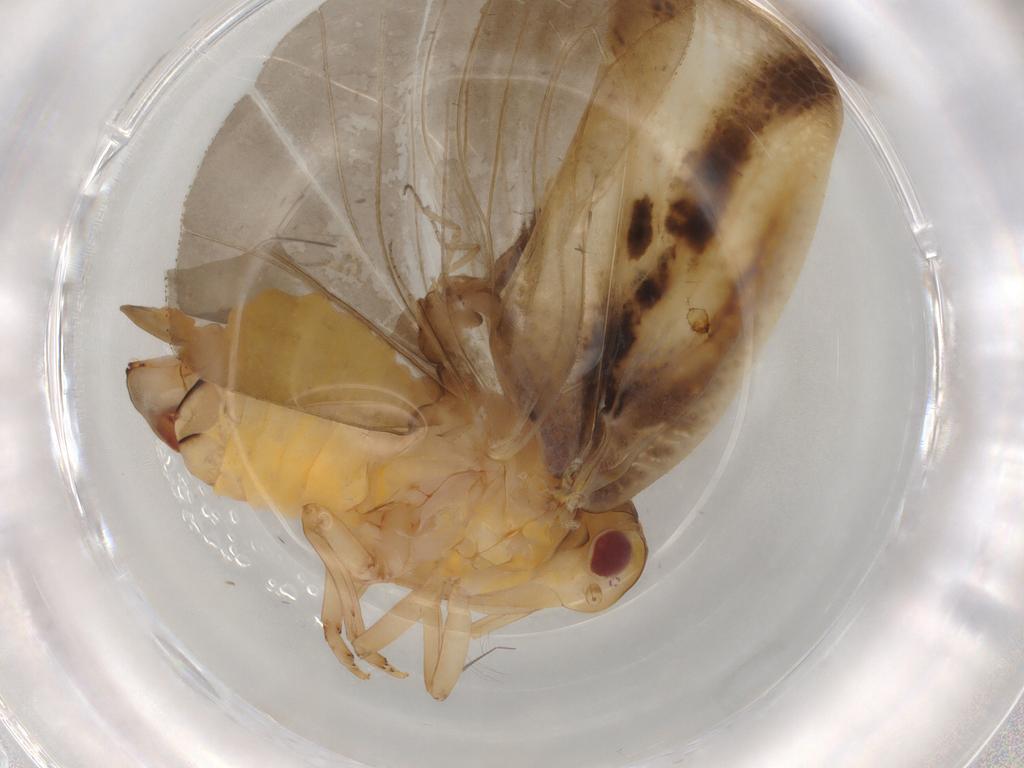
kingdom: Animalia
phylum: Arthropoda
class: Insecta
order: Hemiptera
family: Flatidae
